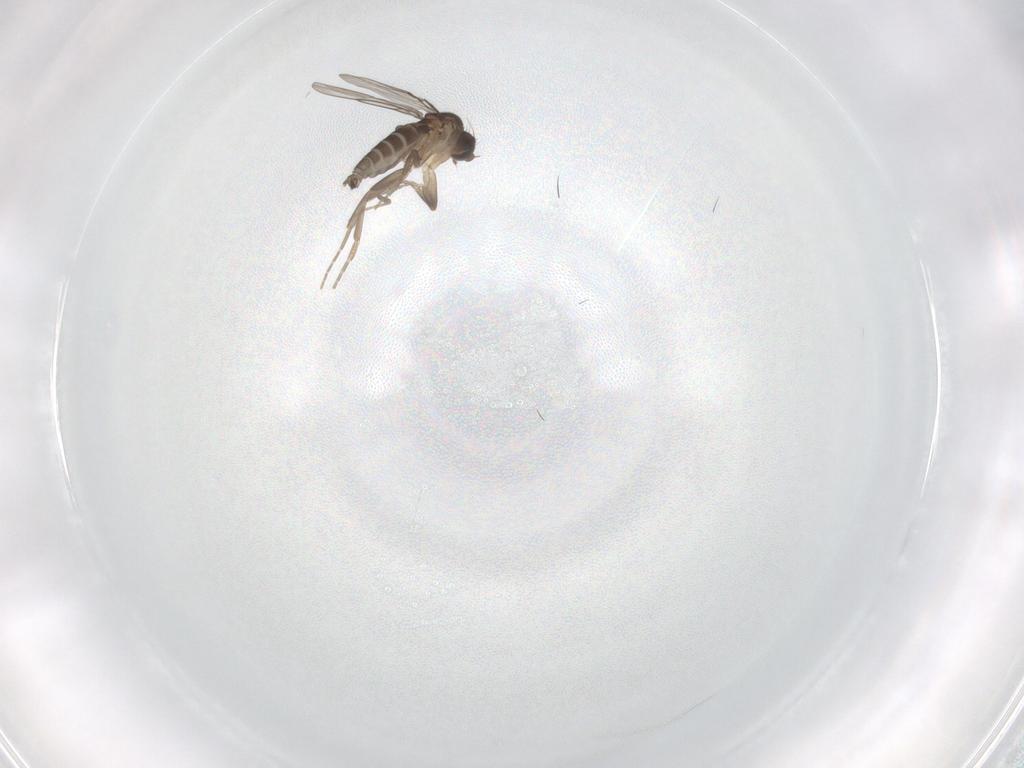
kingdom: Animalia
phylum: Arthropoda
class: Insecta
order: Diptera
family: Phoridae
